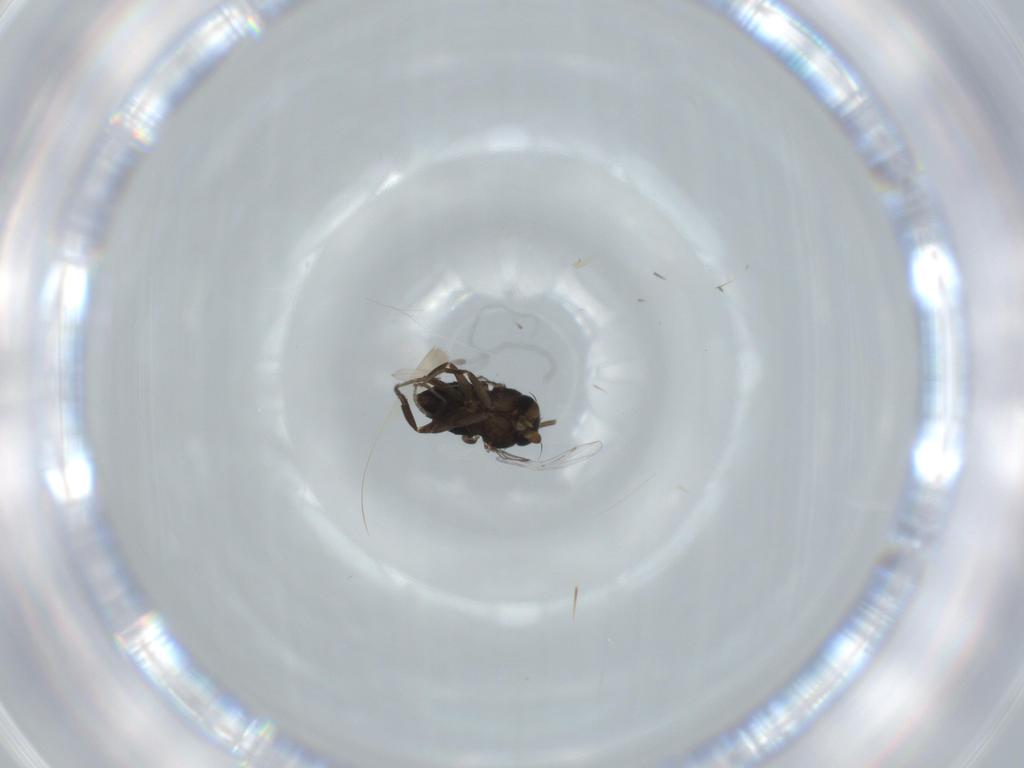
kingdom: Animalia
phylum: Arthropoda
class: Insecta
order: Diptera
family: Phoridae
